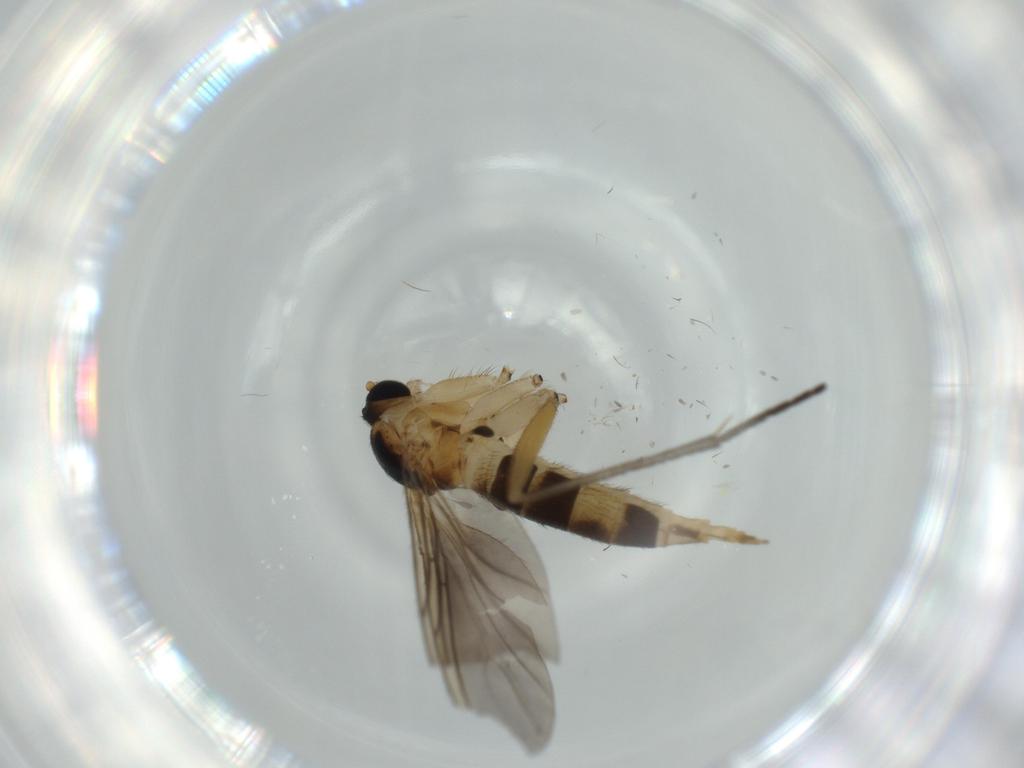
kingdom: Animalia
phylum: Arthropoda
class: Insecta
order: Diptera
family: Sciaridae
